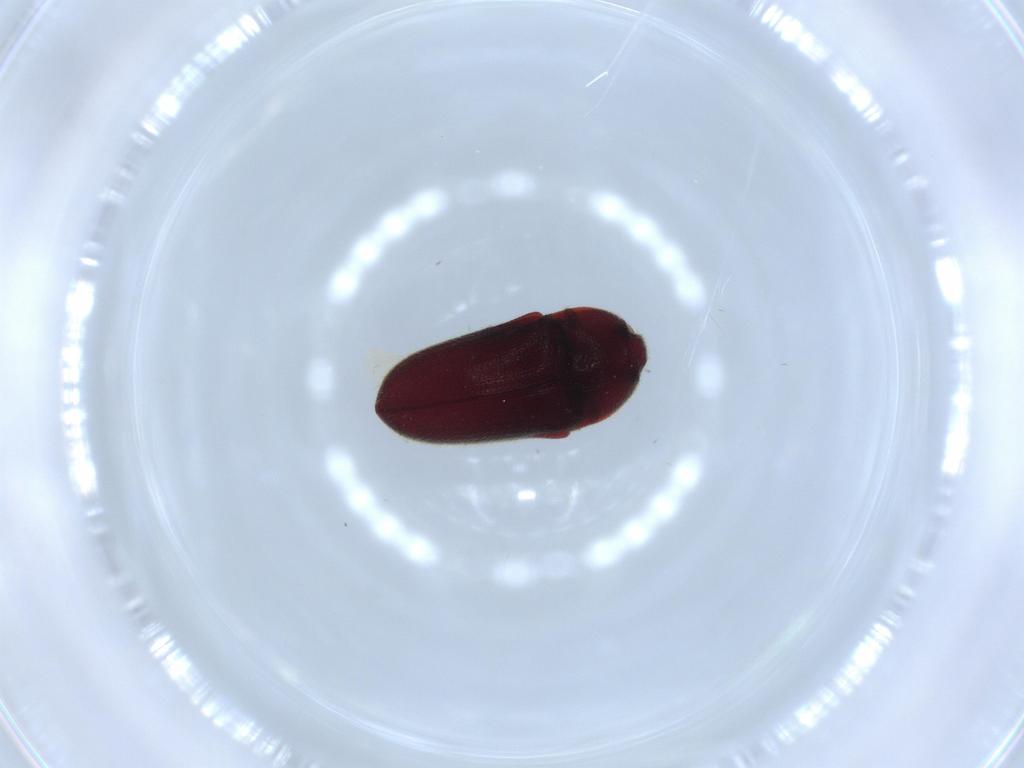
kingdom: Animalia
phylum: Arthropoda
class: Insecta
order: Coleoptera
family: Throscidae
